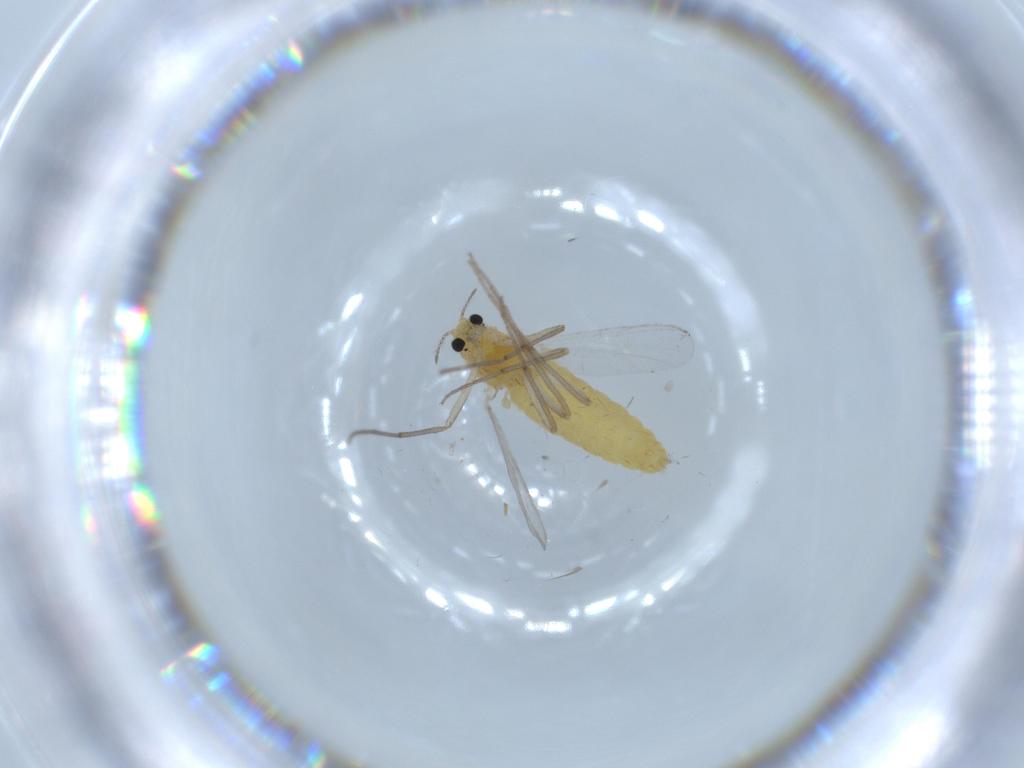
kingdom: Animalia
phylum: Arthropoda
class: Insecta
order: Diptera
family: Chironomidae
